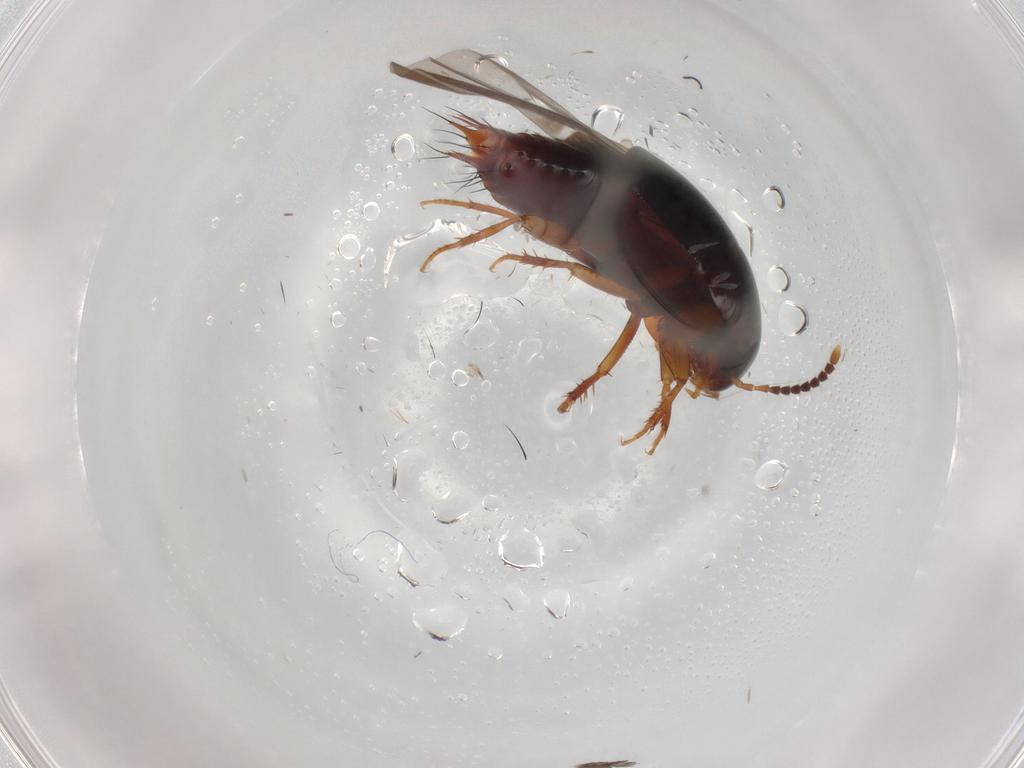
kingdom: Animalia
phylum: Arthropoda
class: Insecta
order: Coleoptera
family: Staphylinidae
